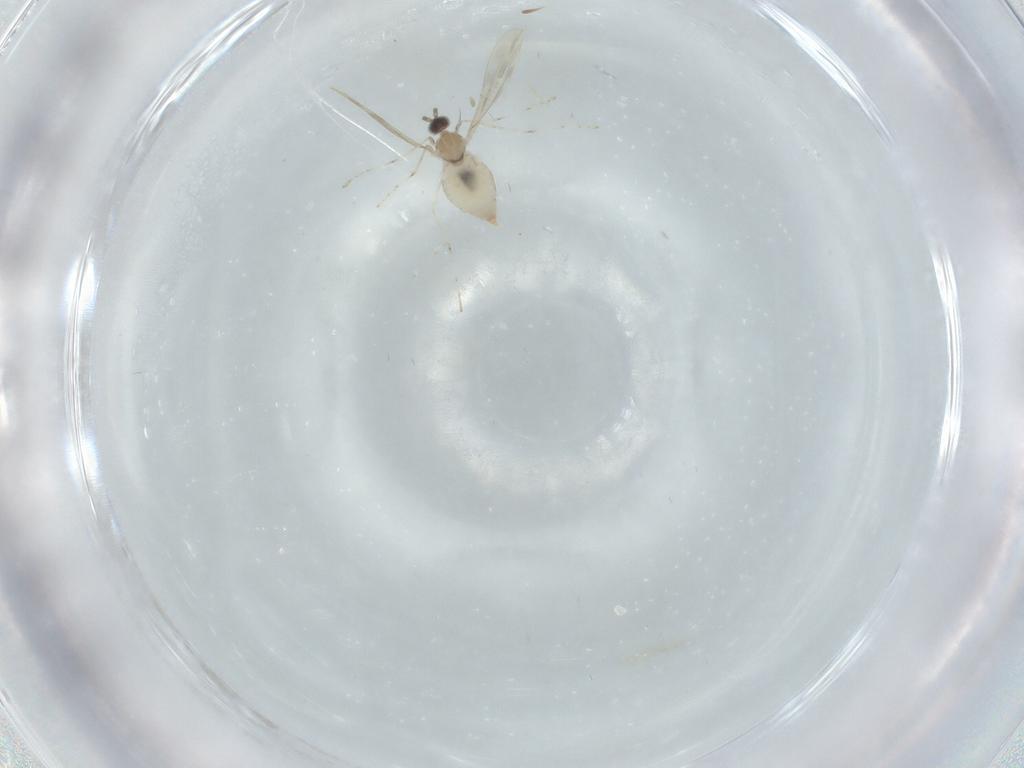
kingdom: Animalia
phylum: Arthropoda
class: Insecta
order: Diptera
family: Cecidomyiidae
